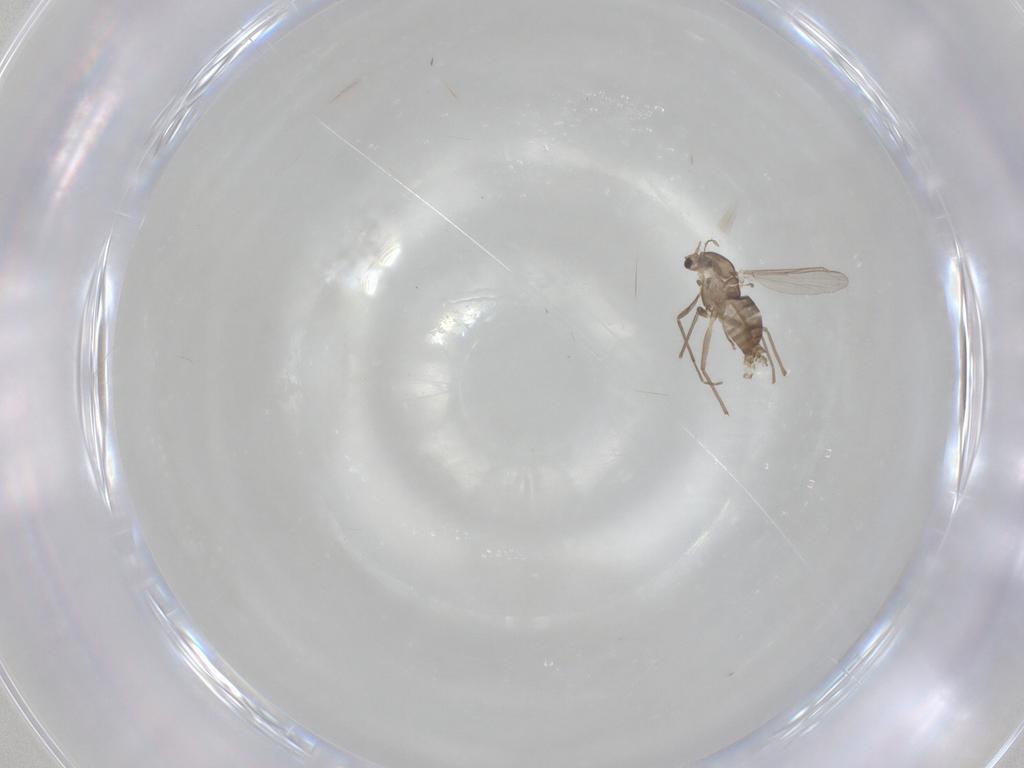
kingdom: Animalia
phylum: Arthropoda
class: Insecta
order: Diptera
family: Chironomidae
